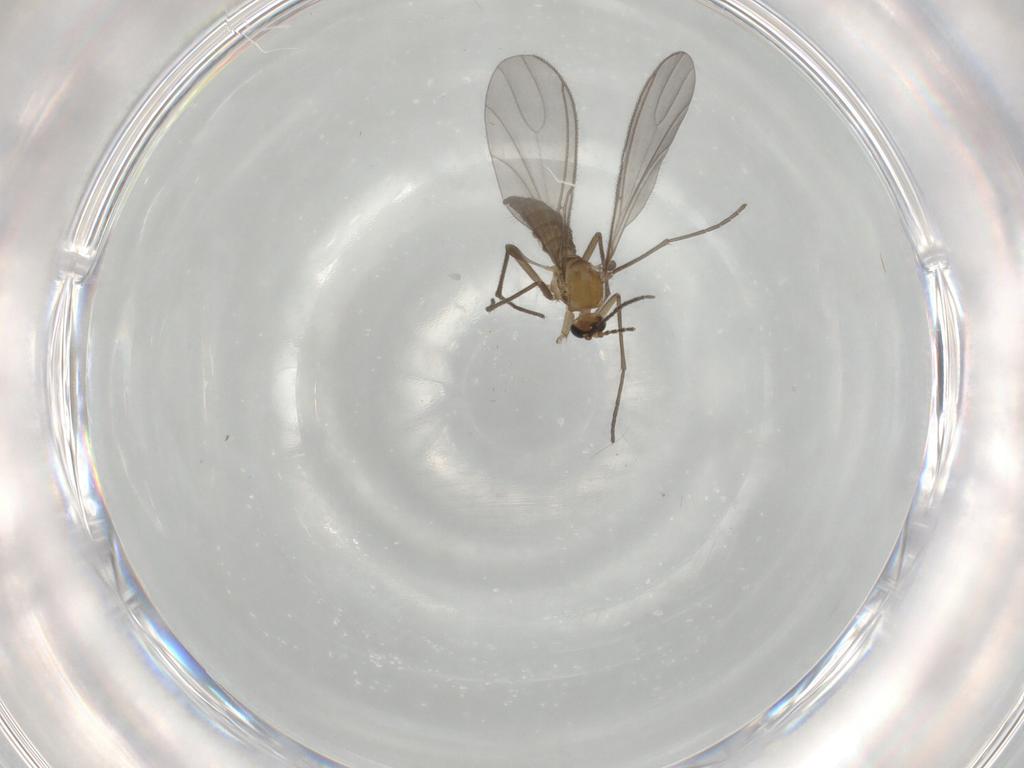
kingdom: Animalia
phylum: Arthropoda
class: Insecta
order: Diptera
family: Sciaridae
